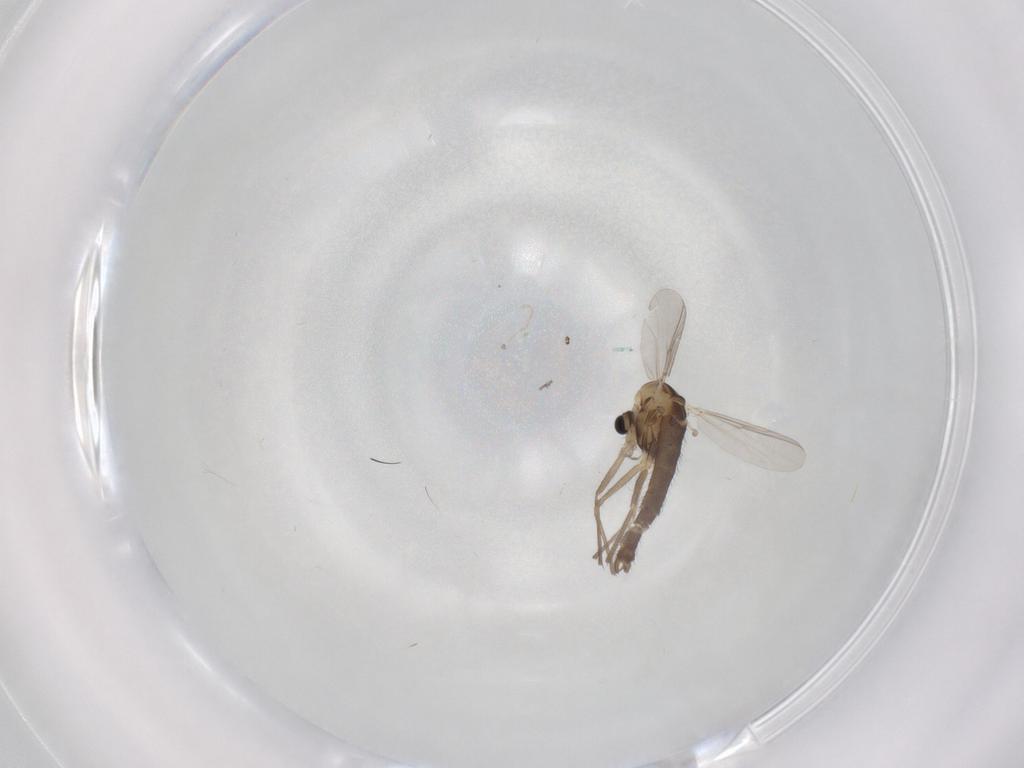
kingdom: Animalia
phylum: Arthropoda
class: Insecta
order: Diptera
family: Chironomidae
